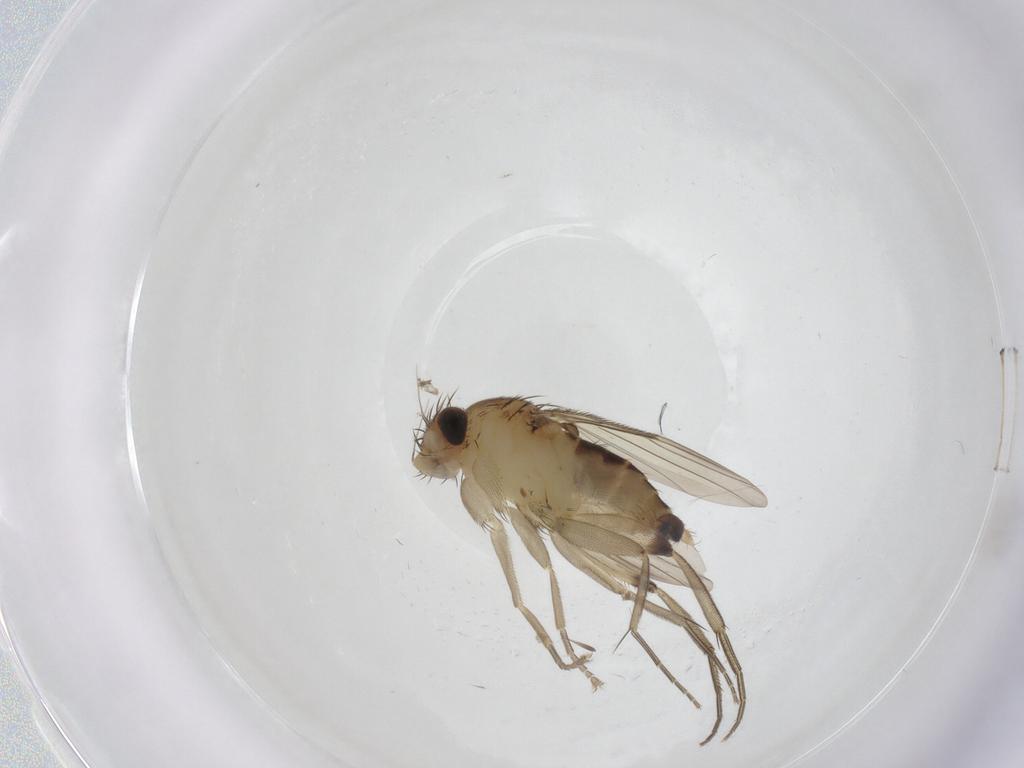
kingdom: Animalia
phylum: Arthropoda
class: Insecta
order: Diptera
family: Phoridae
